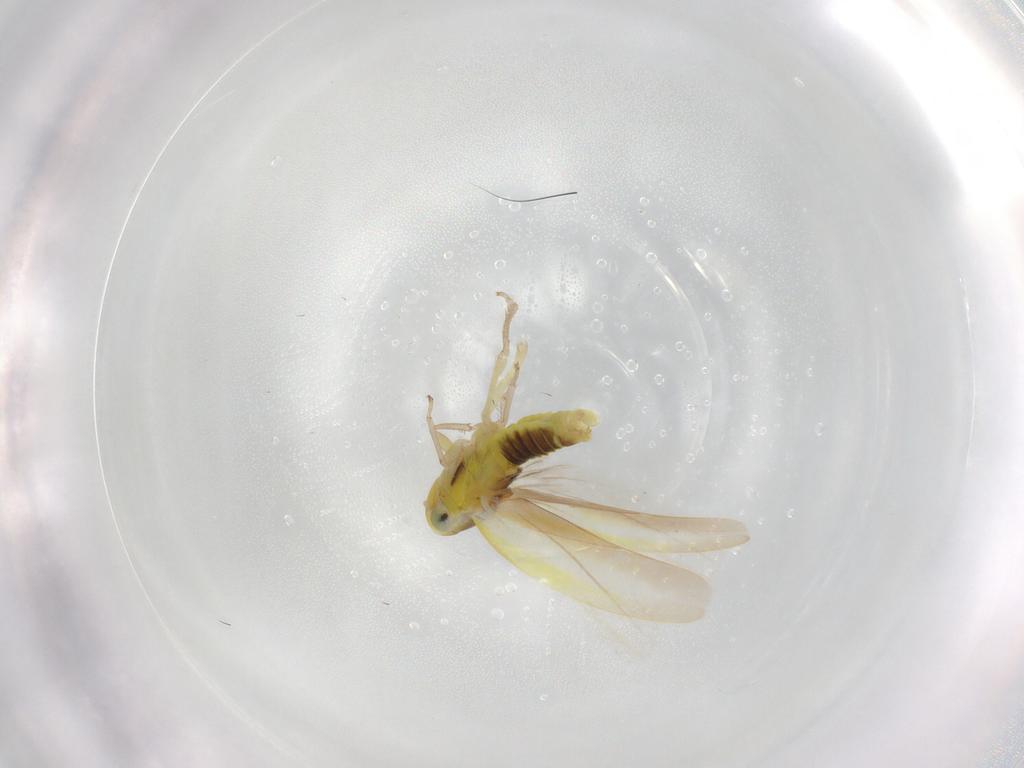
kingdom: Animalia
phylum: Arthropoda
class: Insecta
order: Hemiptera
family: Cicadellidae
